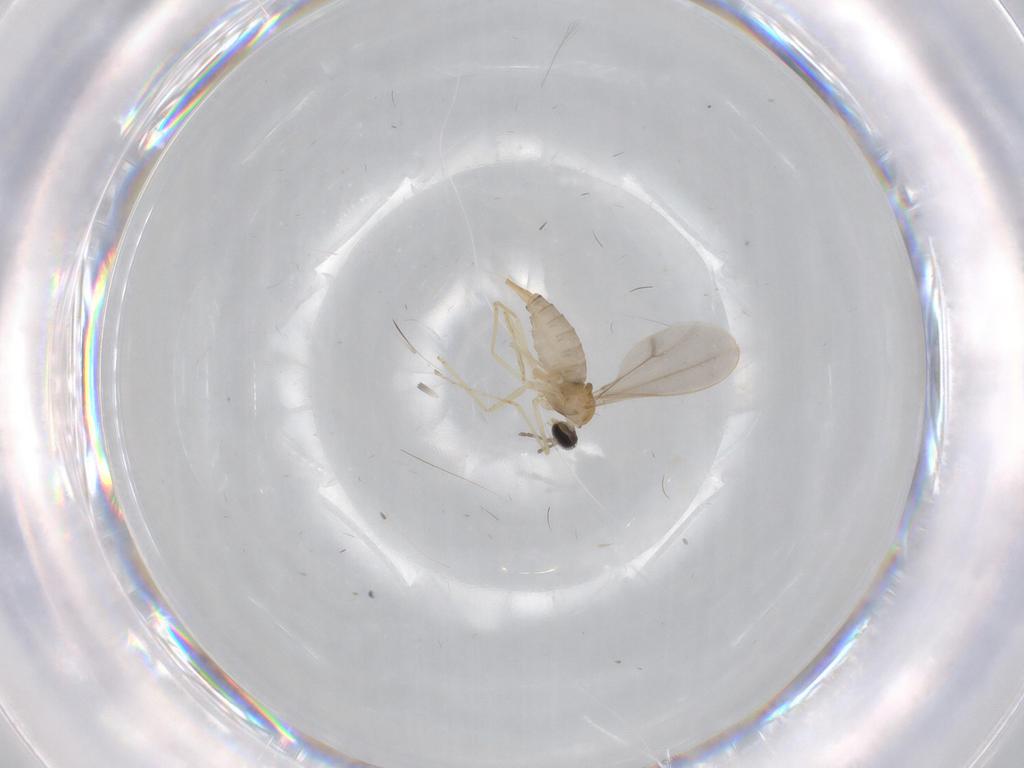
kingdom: Animalia
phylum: Arthropoda
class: Insecta
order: Diptera
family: Cecidomyiidae
